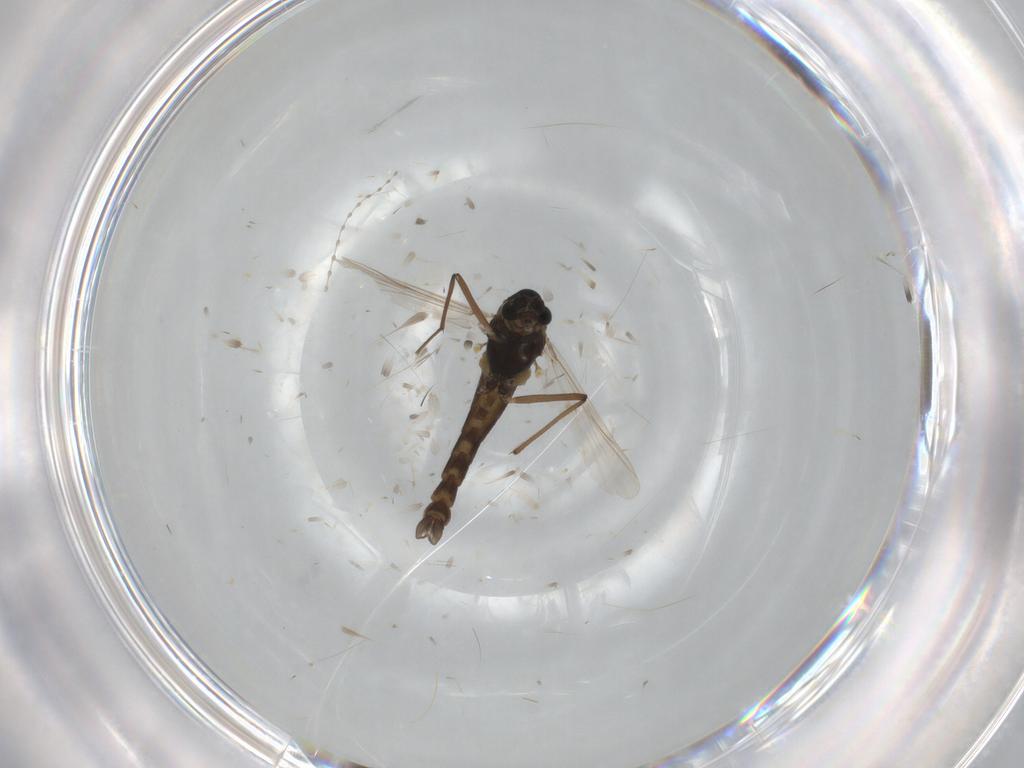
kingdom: Animalia
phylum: Arthropoda
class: Insecta
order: Diptera
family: Chironomidae
